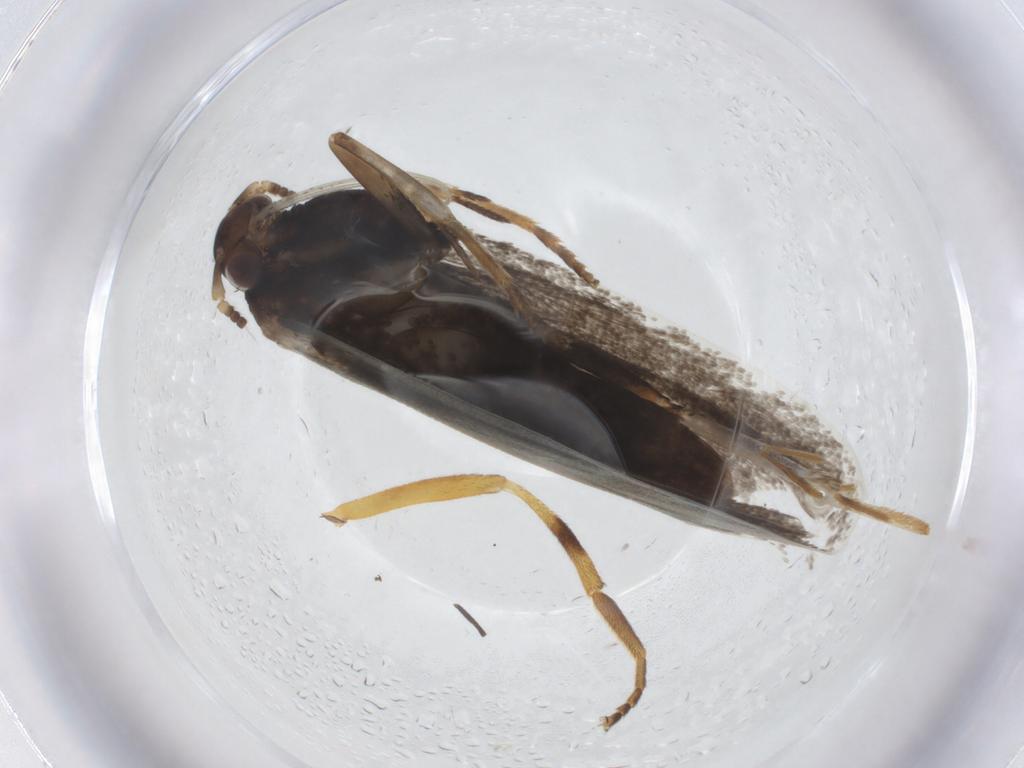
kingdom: Animalia
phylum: Arthropoda
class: Insecta
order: Lepidoptera
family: Lecithoceridae
